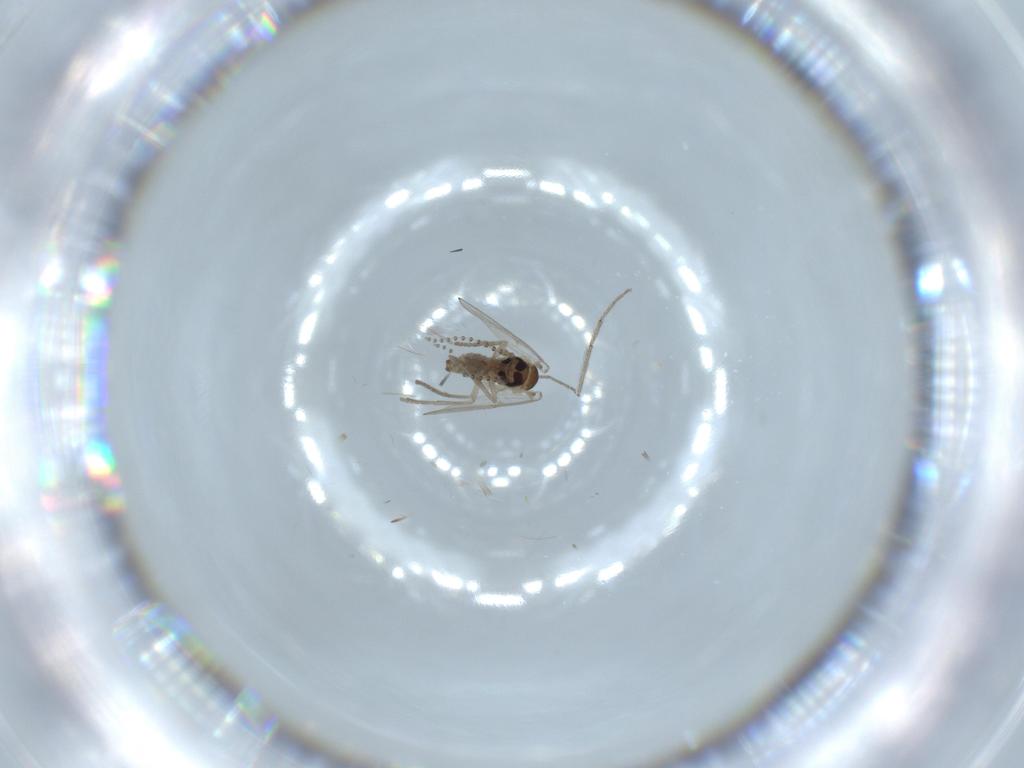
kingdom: Animalia
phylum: Arthropoda
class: Insecta
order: Diptera
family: Psychodidae
